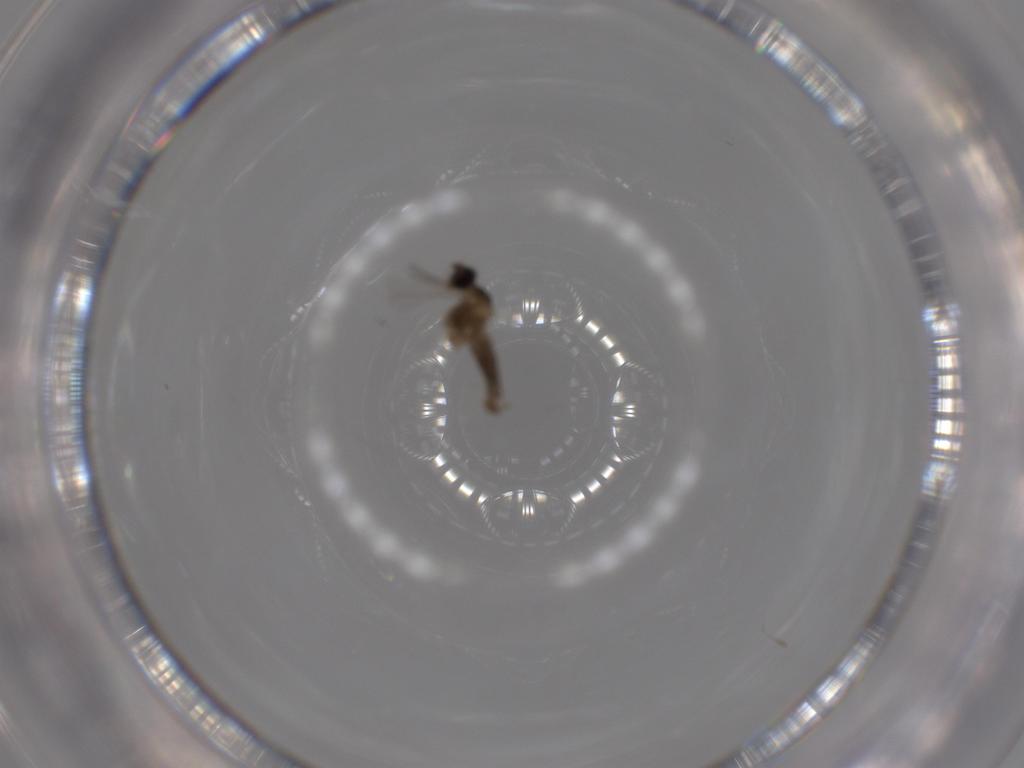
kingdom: Animalia
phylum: Arthropoda
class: Insecta
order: Diptera
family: Cecidomyiidae
